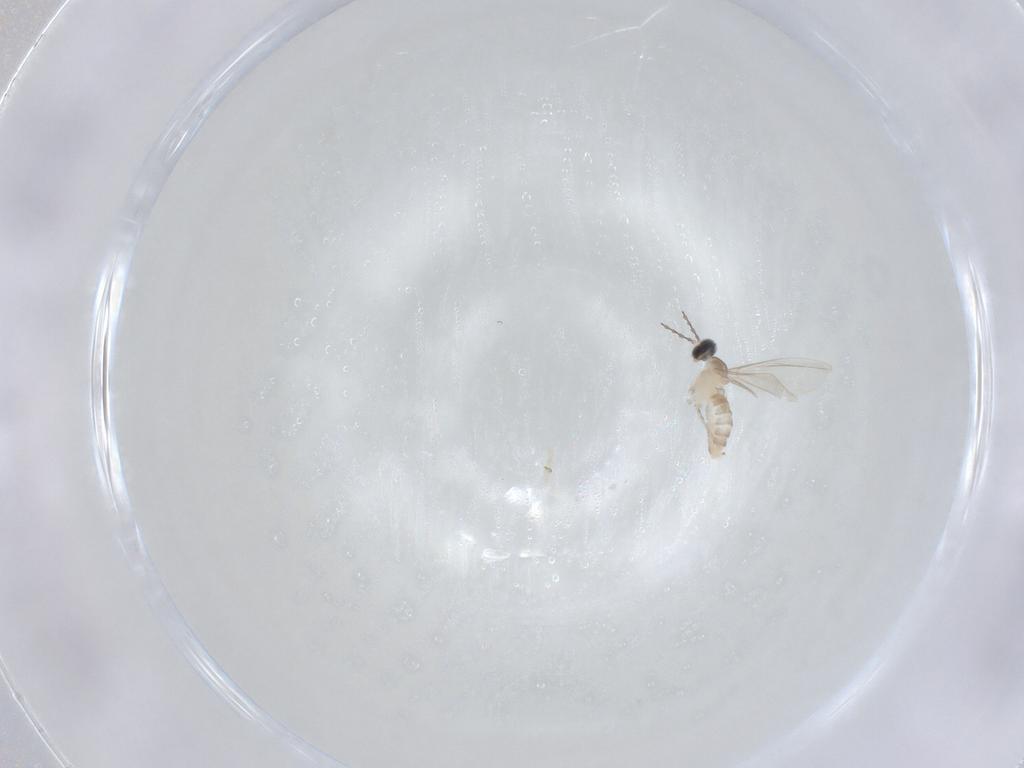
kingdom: Animalia
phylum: Arthropoda
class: Insecta
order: Diptera
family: Cecidomyiidae
